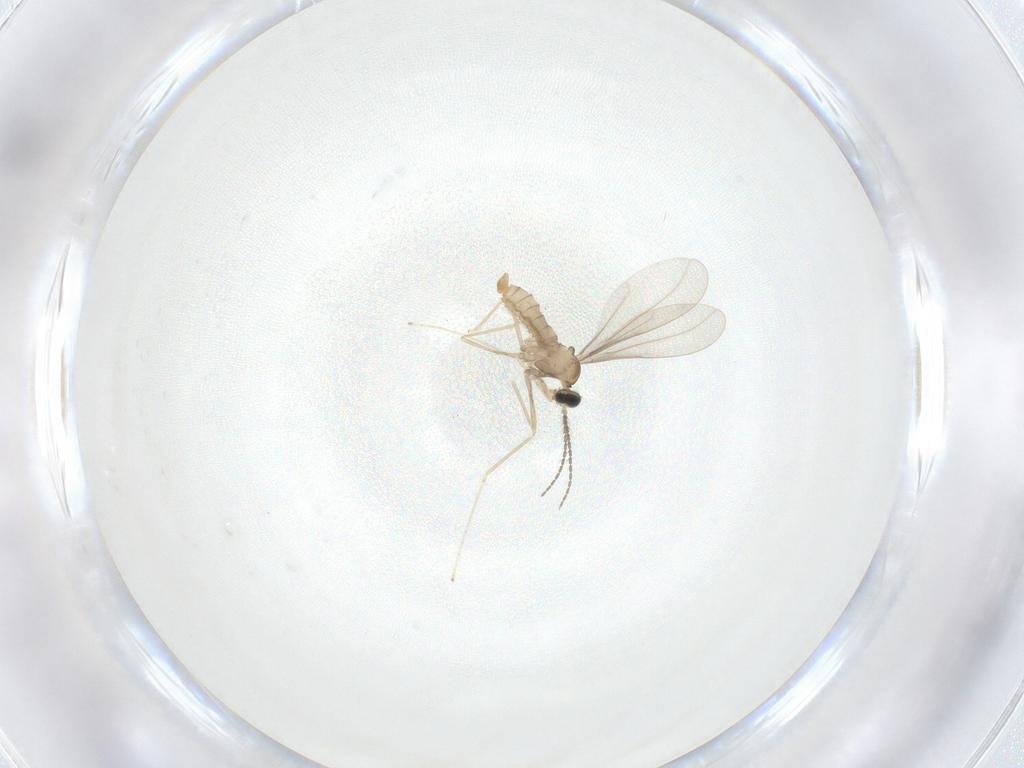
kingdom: Animalia
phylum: Arthropoda
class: Insecta
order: Diptera
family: Cecidomyiidae
